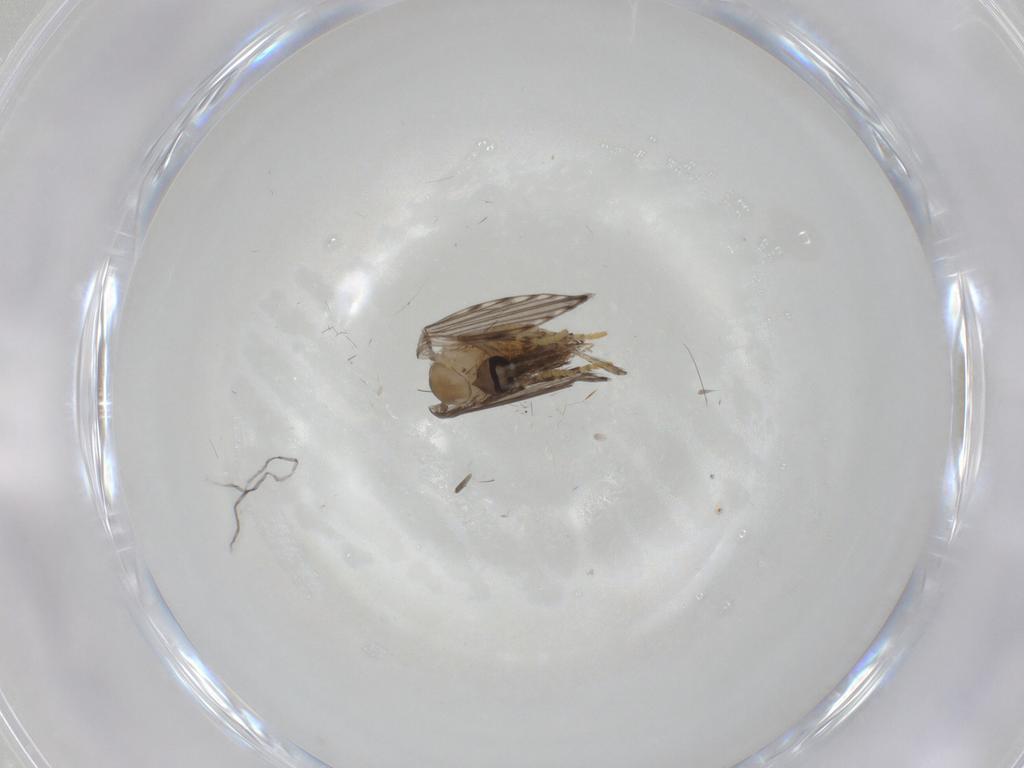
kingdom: Animalia
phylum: Arthropoda
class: Insecta
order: Diptera
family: Psychodidae
